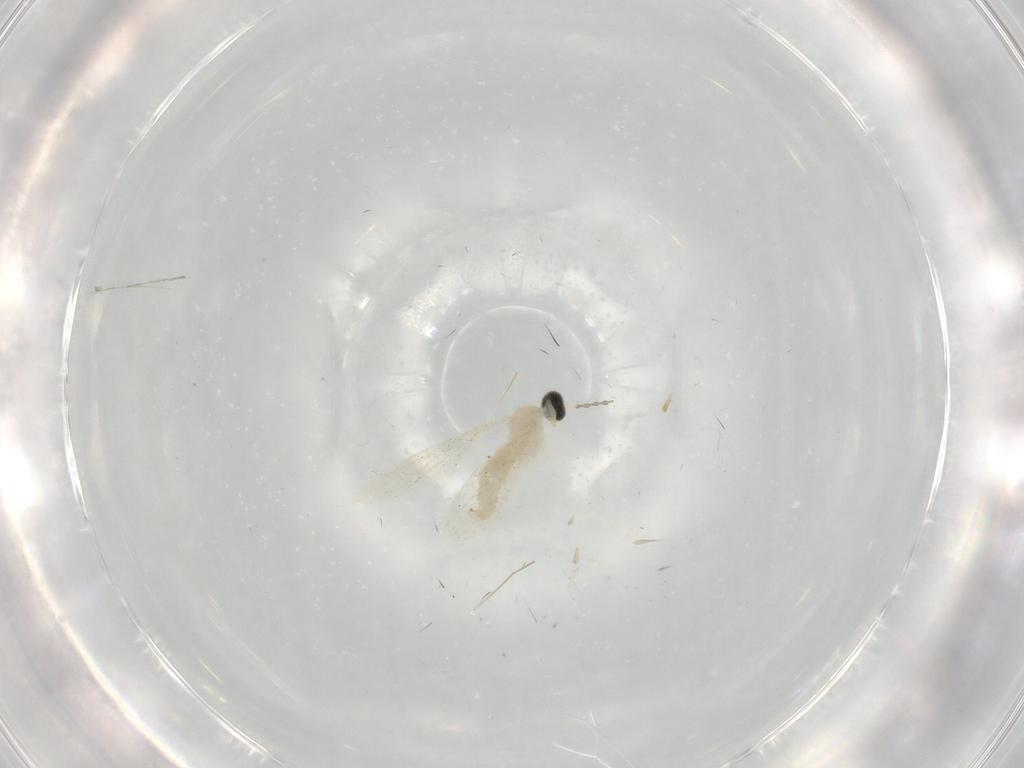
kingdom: Animalia
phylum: Arthropoda
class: Insecta
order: Diptera
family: Cecidomyiidae
